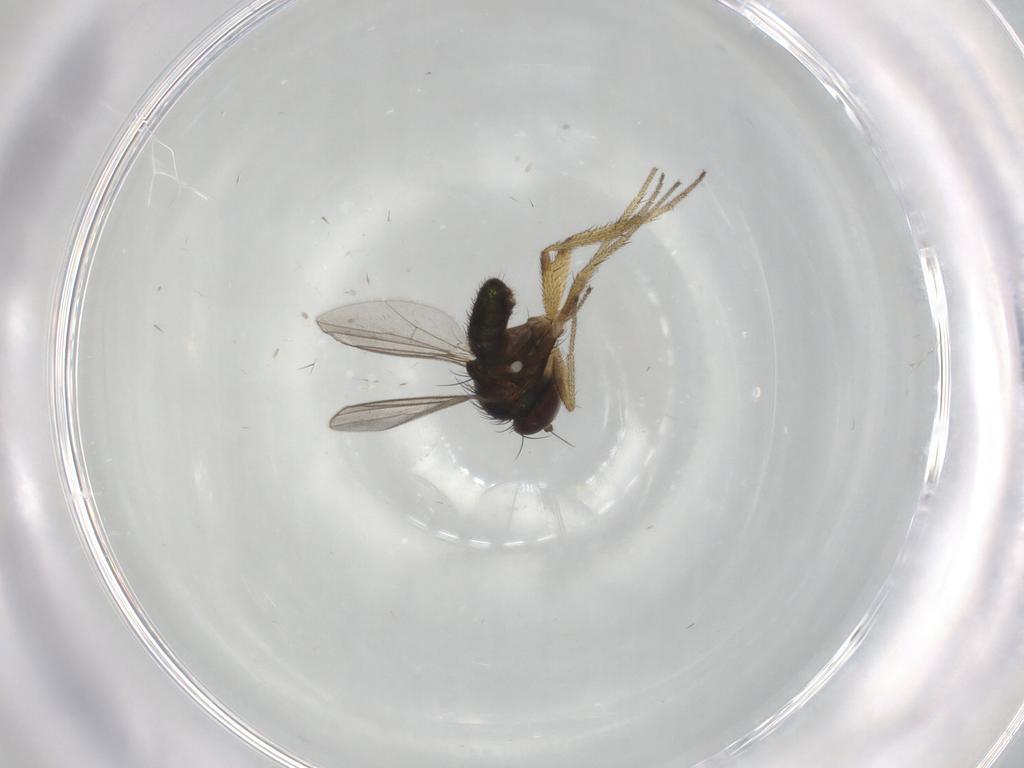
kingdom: Animalia
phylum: Arthropoda
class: Insecta
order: Diptera
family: Dolichopodidae
